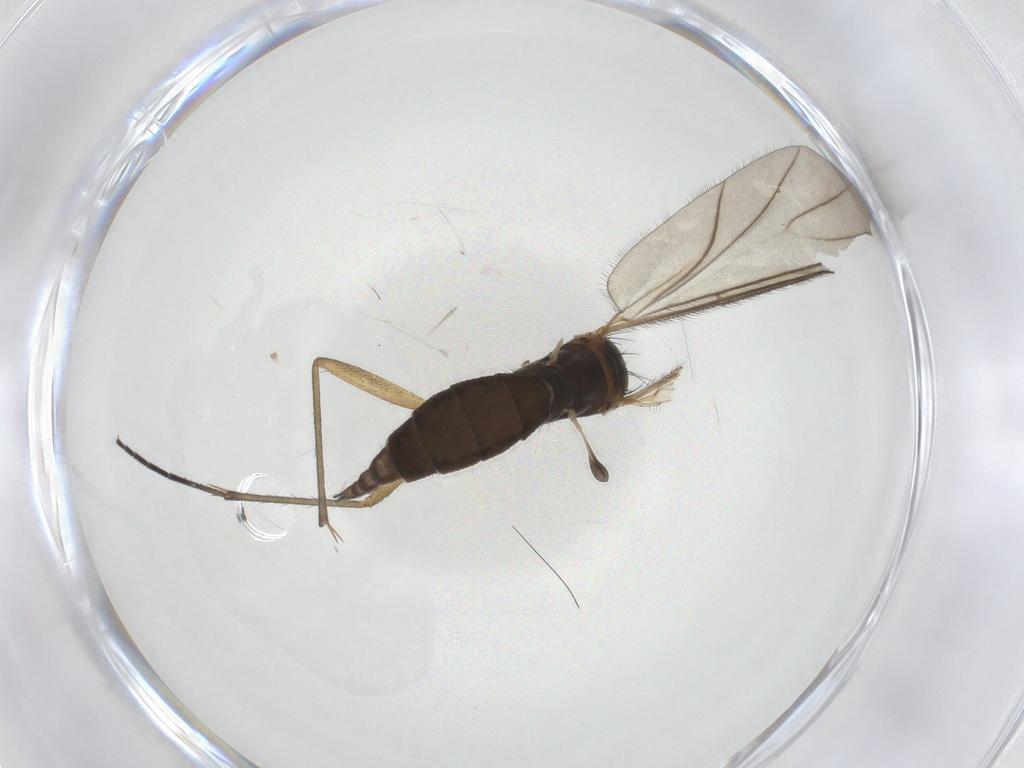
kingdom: Animalia
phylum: Arthropoda
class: Insecta
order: Diptera
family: Sciaridae
